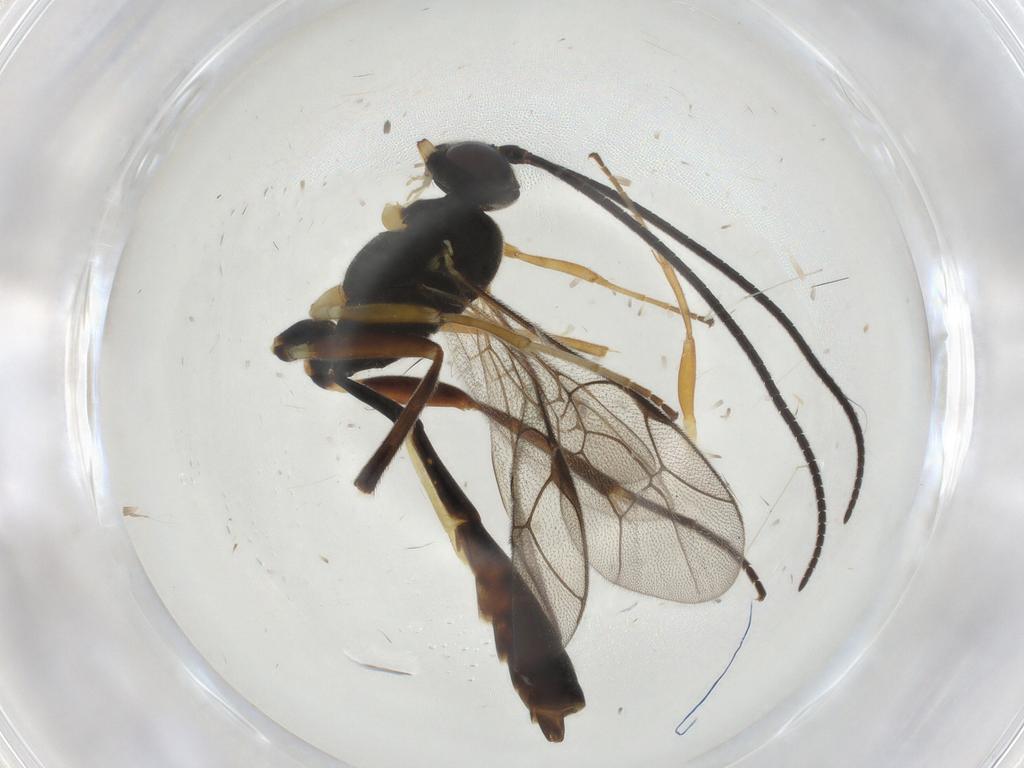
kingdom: Animalia
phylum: Arthropoda
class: Insecta
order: Hymenoptera
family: Ichneumonidae
